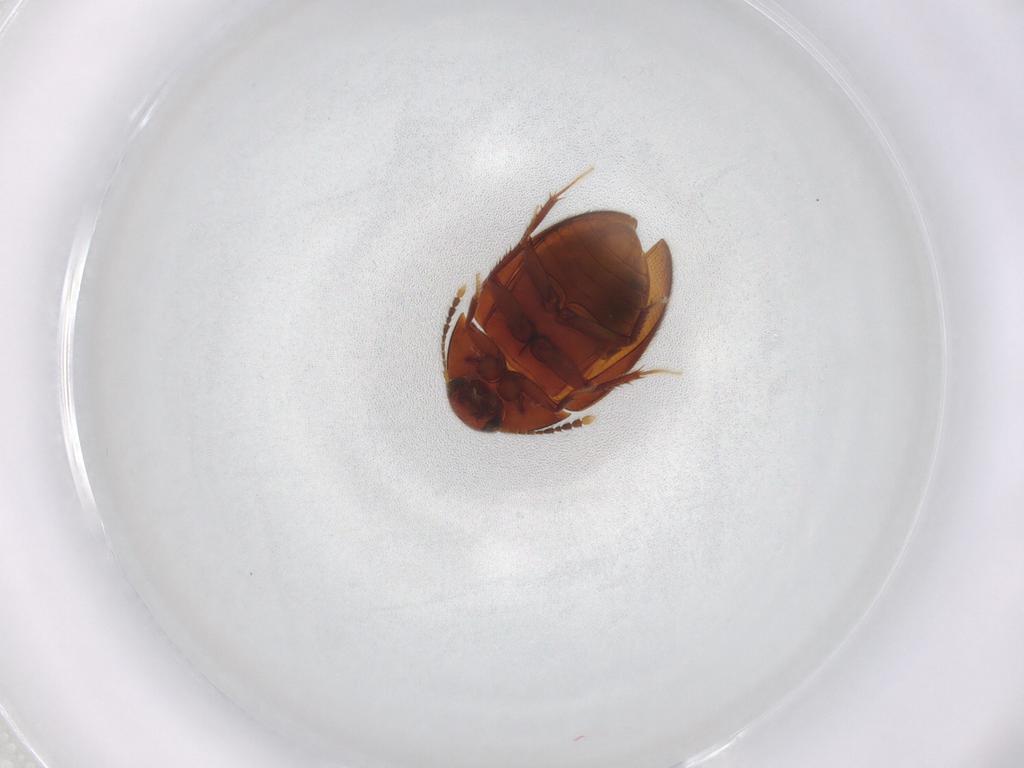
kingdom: Animalia
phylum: Arthropoda
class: Insecta
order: Coleoptera
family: Leiodidae
